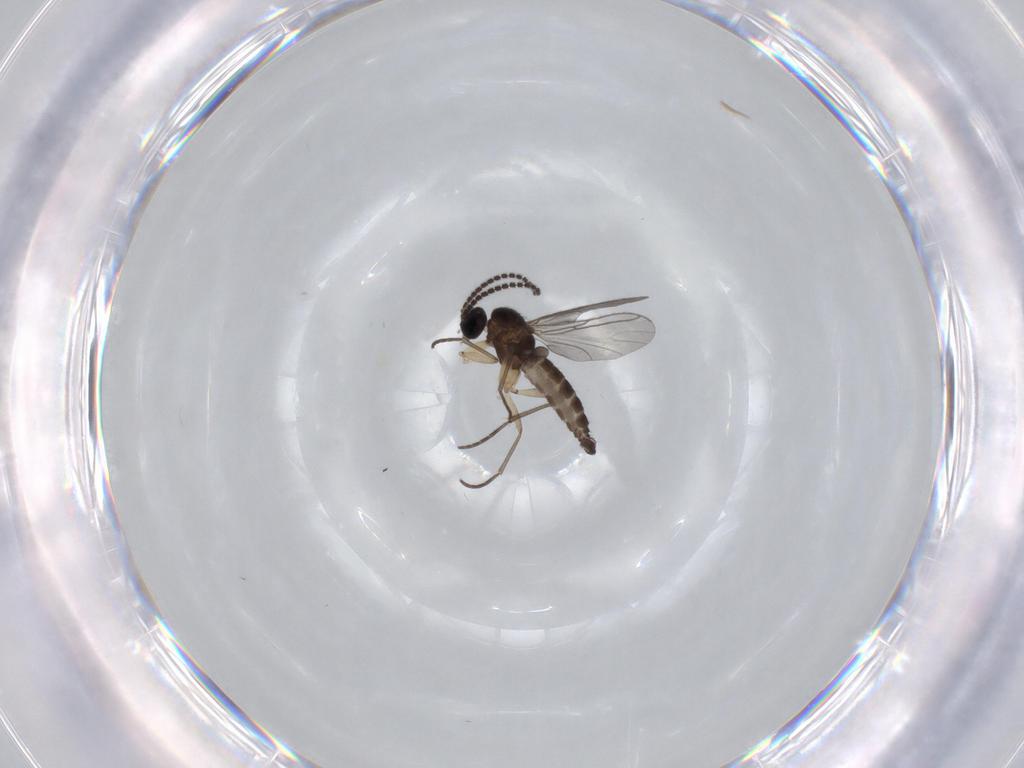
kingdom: Animalia
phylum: Arthropoda
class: Insecta
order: Diptera
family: Sciaridae
